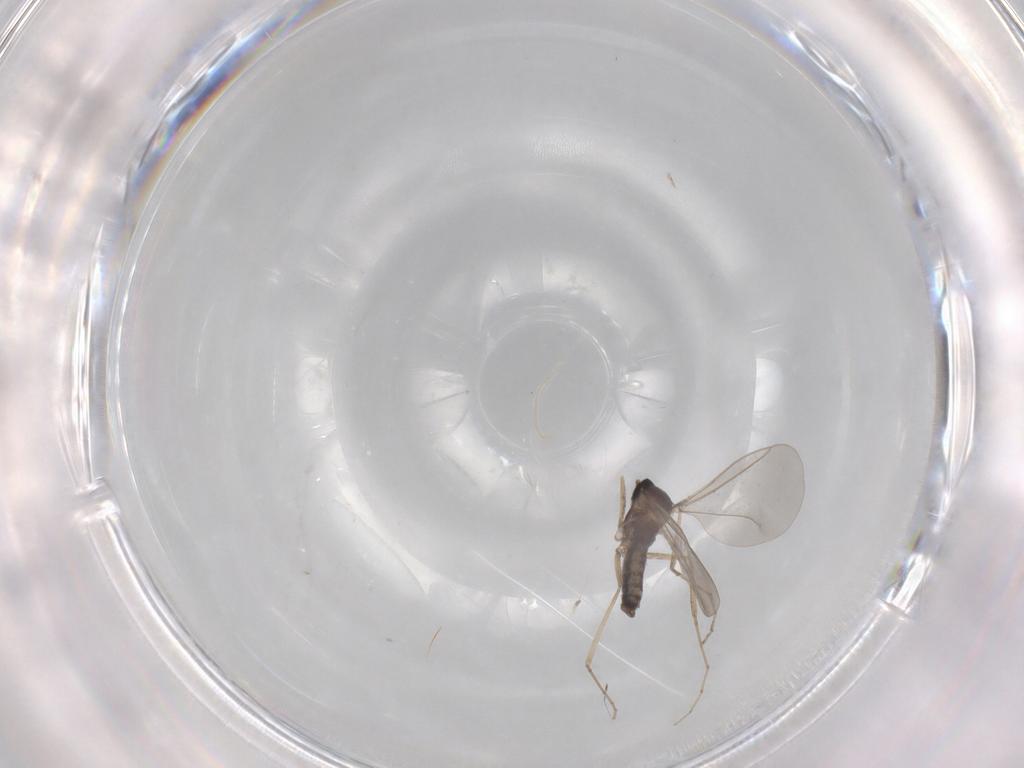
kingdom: Animalia
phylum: Arthropoda
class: Insecta
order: Diptera
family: Cecidomyiidae
